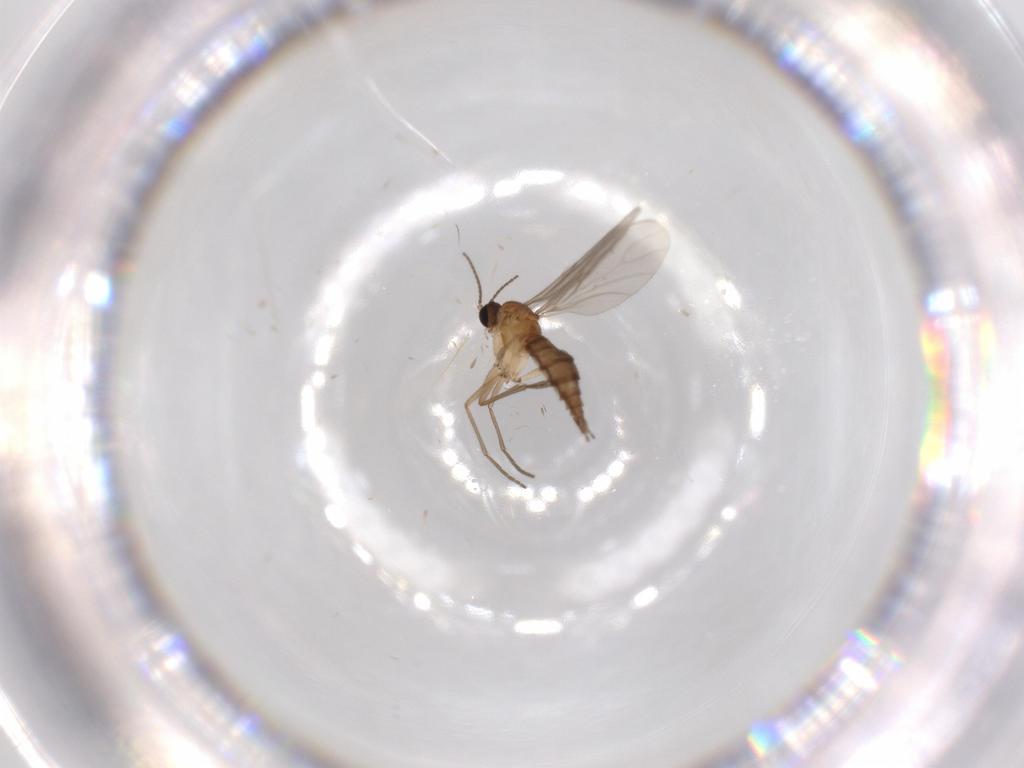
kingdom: Animalia
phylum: Arthropoda
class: Insecta
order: Diptera
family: Sciaridae
